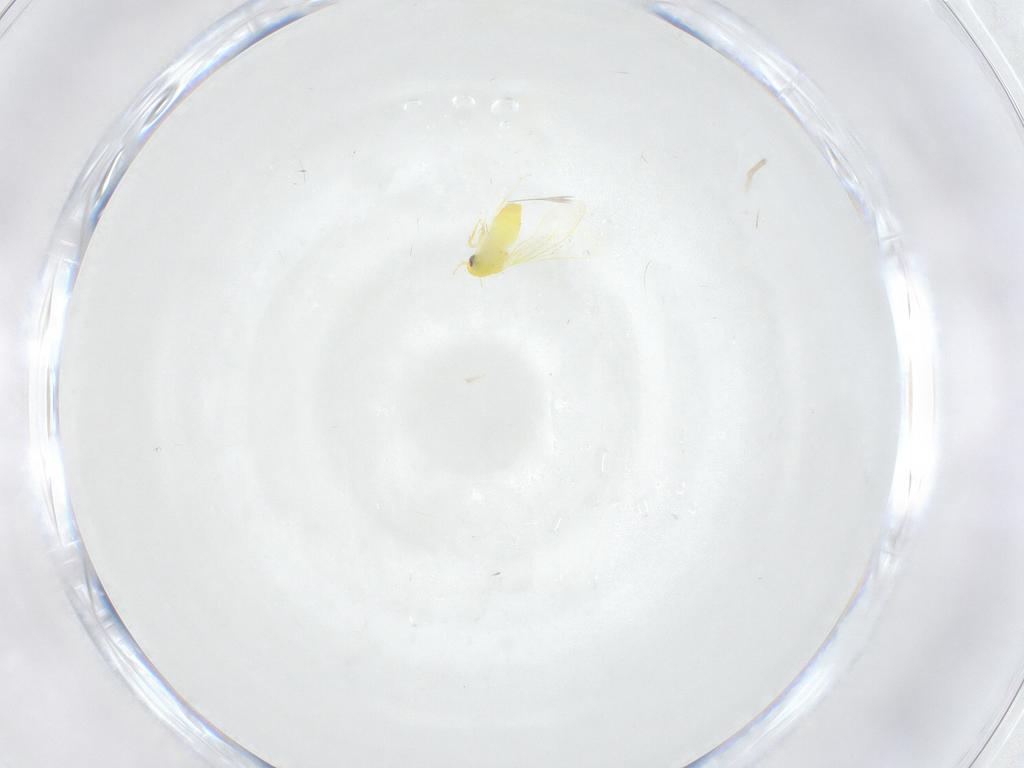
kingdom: Animalia
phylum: Arthropoda
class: Insecta
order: Hemiptera
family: Aleyrodidae
